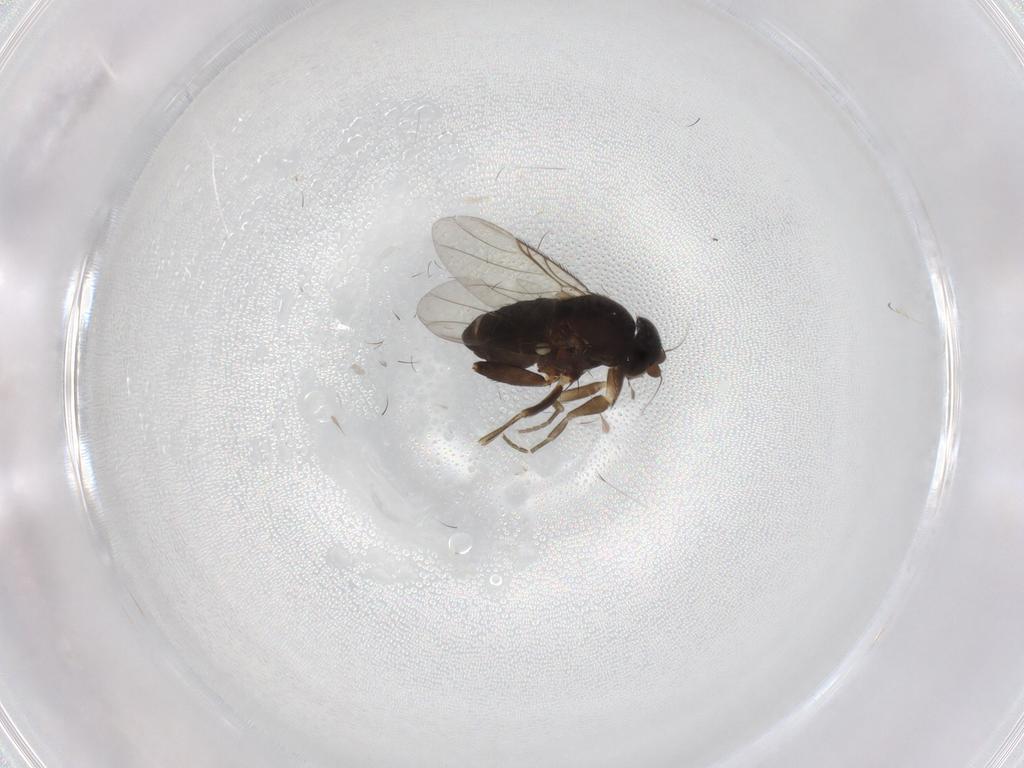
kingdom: Animalia
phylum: Arthropoda
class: Insecta
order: Diptera
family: Phoridae
